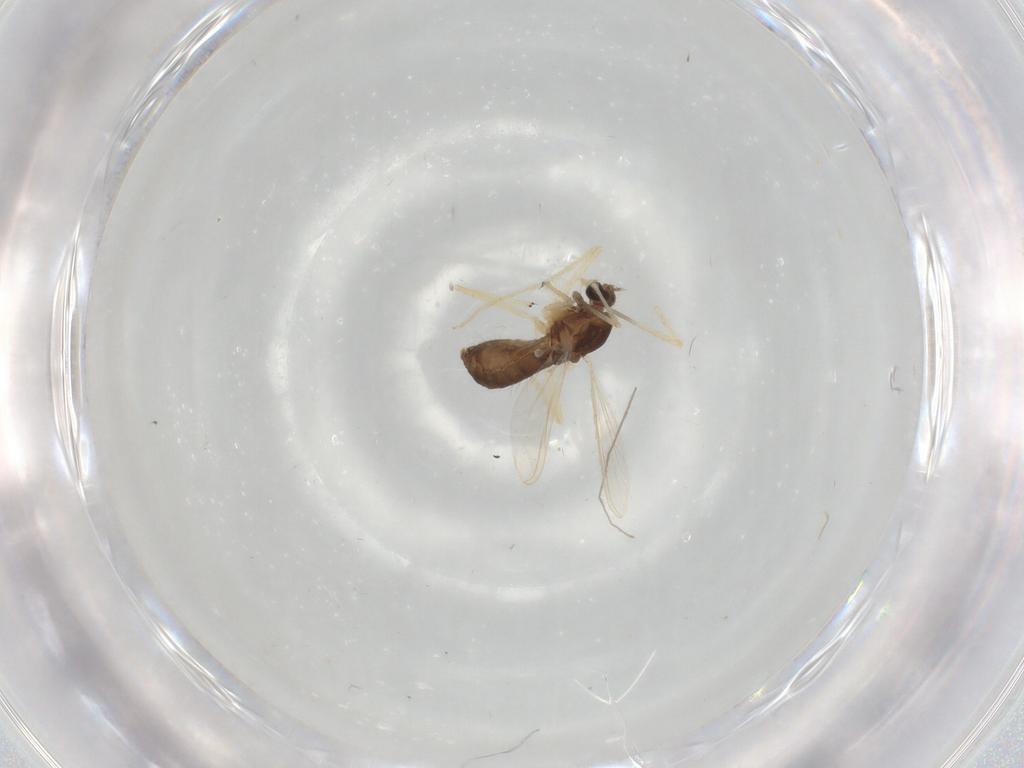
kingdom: Animalia
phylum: Arthropoda
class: Insecta
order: Diptera
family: Chironomidae
